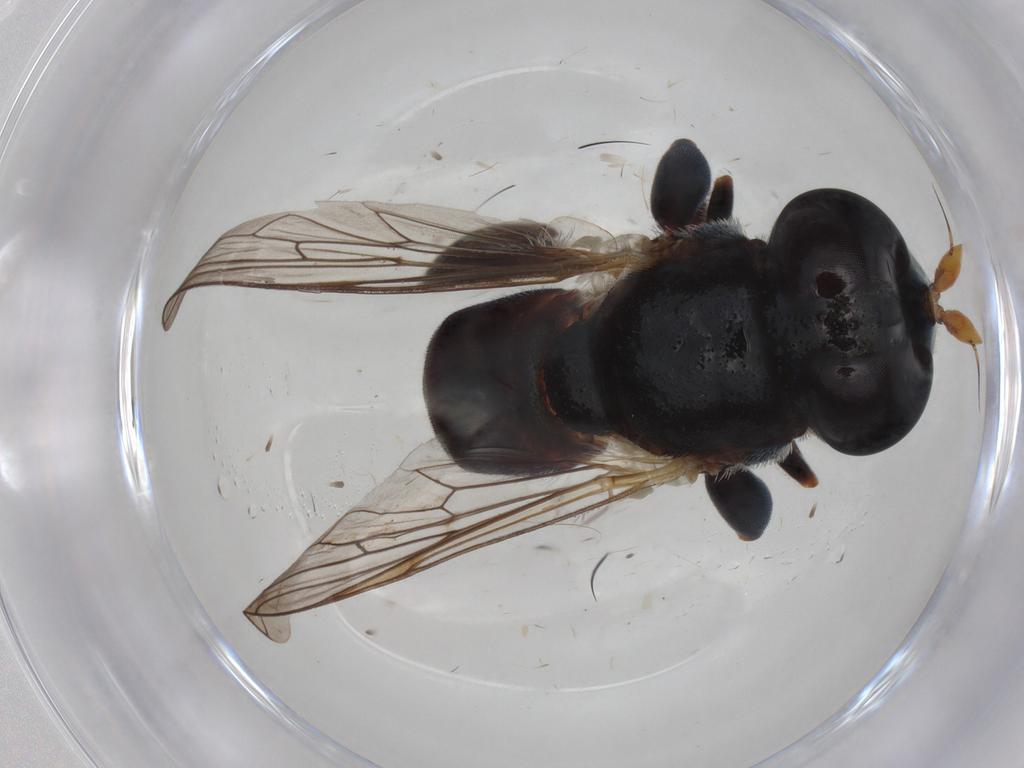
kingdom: Animalia
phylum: Arthropoda
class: Insecta
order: Diptera
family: Syrphidae
